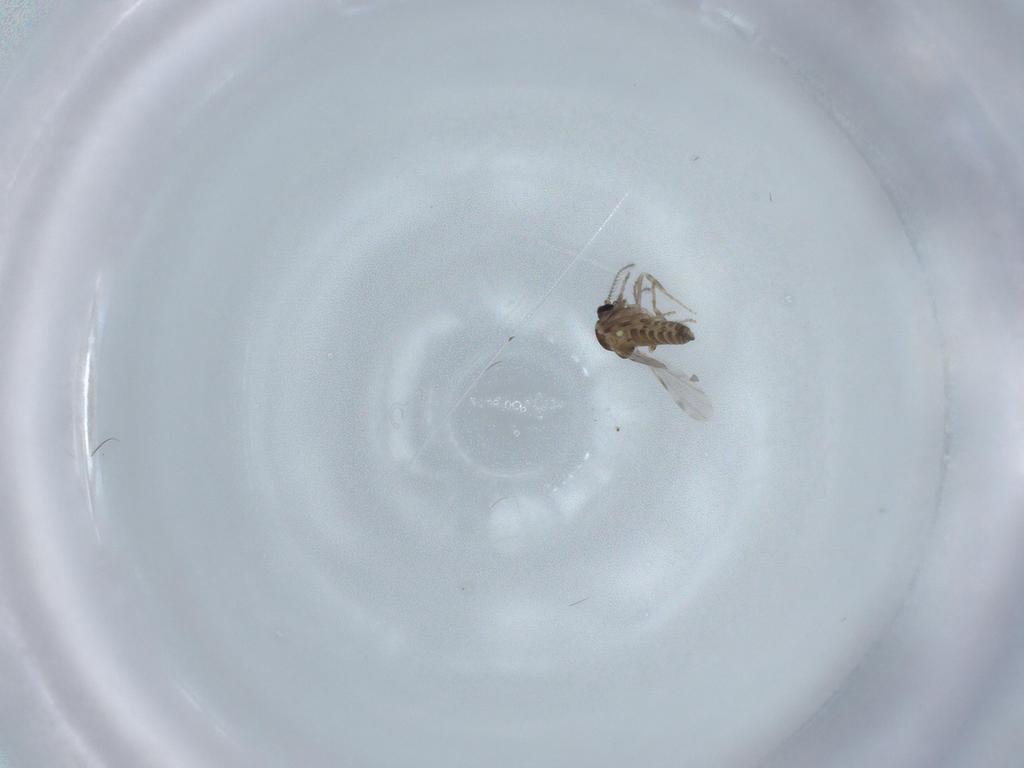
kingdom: Animalia
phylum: Arthropoda
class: Insecta
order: Diptera
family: Ceratopogonidae
